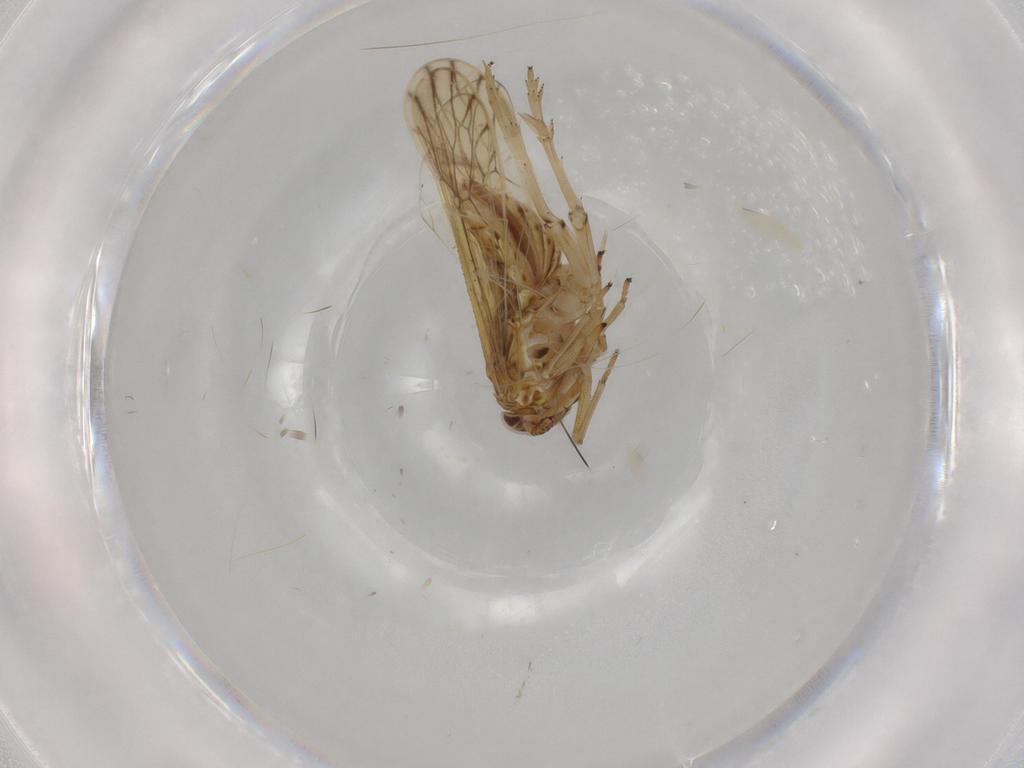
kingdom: Animalia
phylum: Arthropoda
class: Insecta
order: Hemiptera
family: Delphacidae
